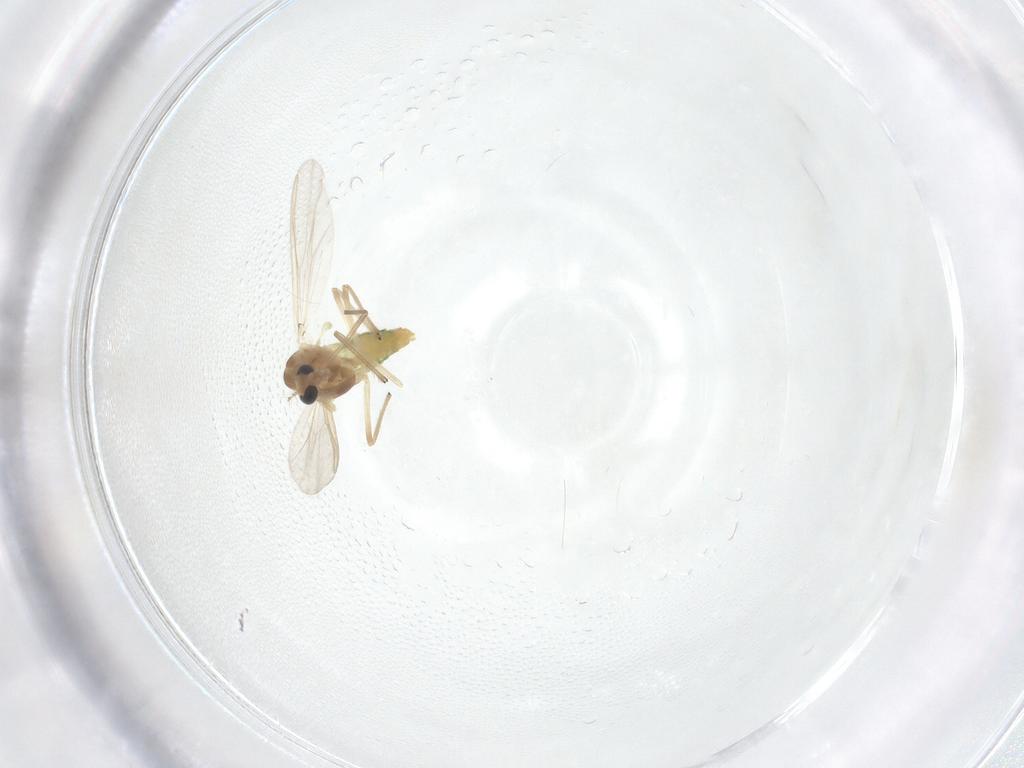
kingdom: Animalia
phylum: Arthropoda
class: Insecta
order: Diptera
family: Chironomidae
